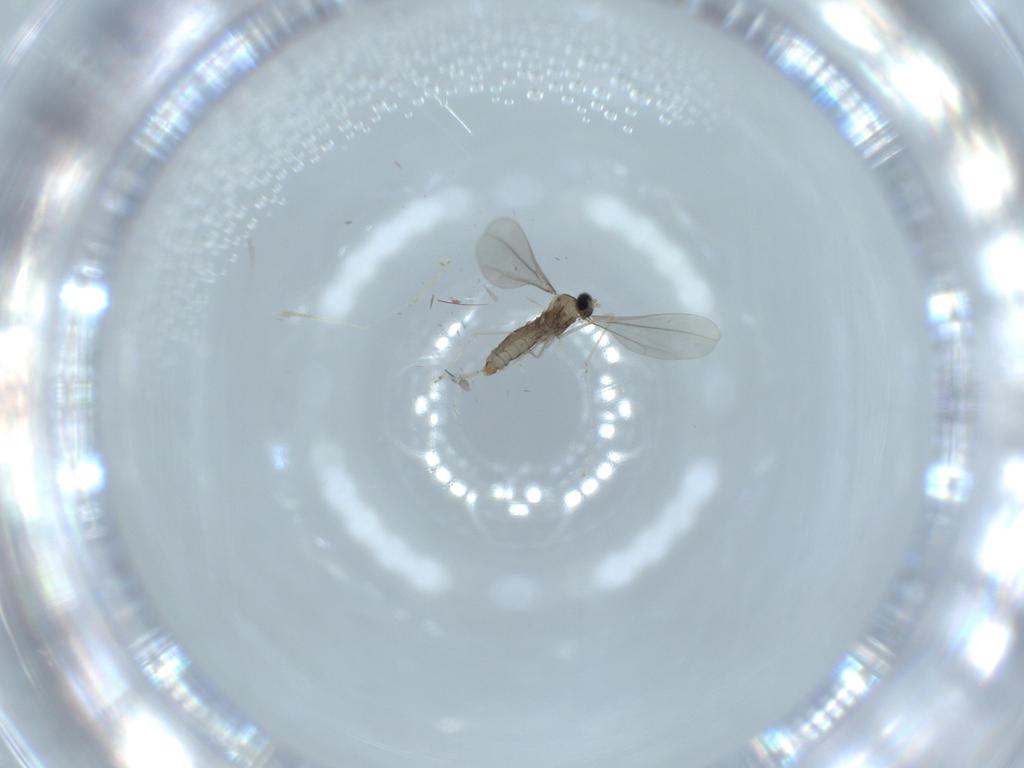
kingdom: Animalia
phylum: Arthropoda
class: Insecta
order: Diptera
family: Cecidomyiidae
